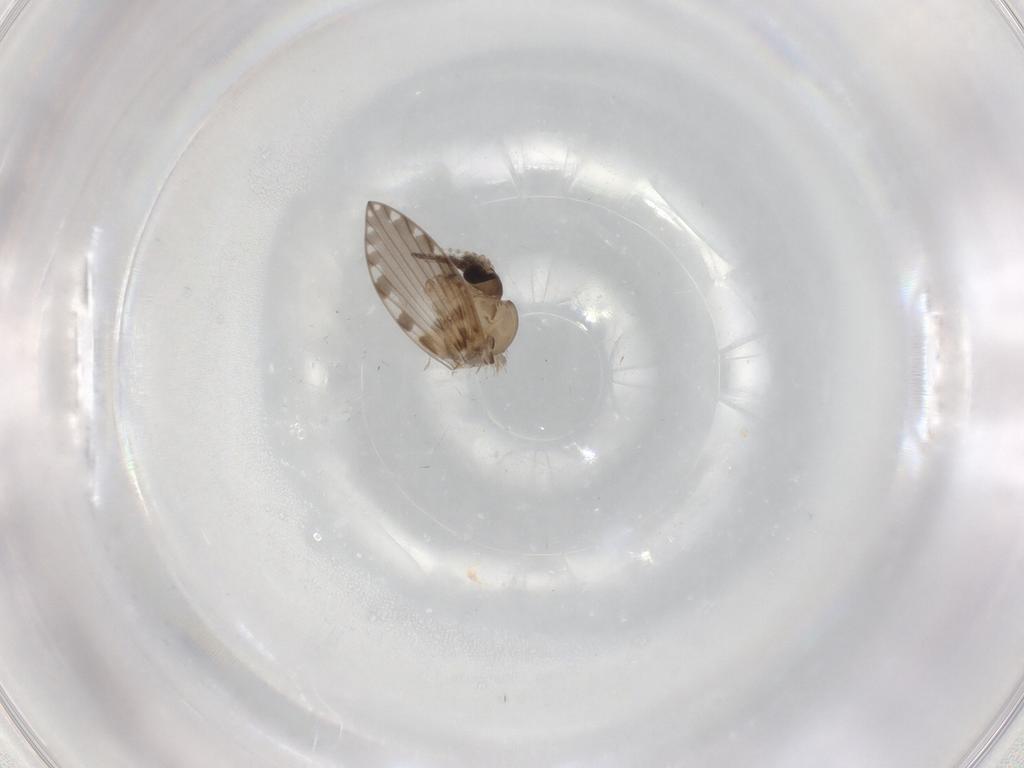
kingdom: Animalia
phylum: Arthropoda
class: Insecta
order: Diptera
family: Psychodidae
